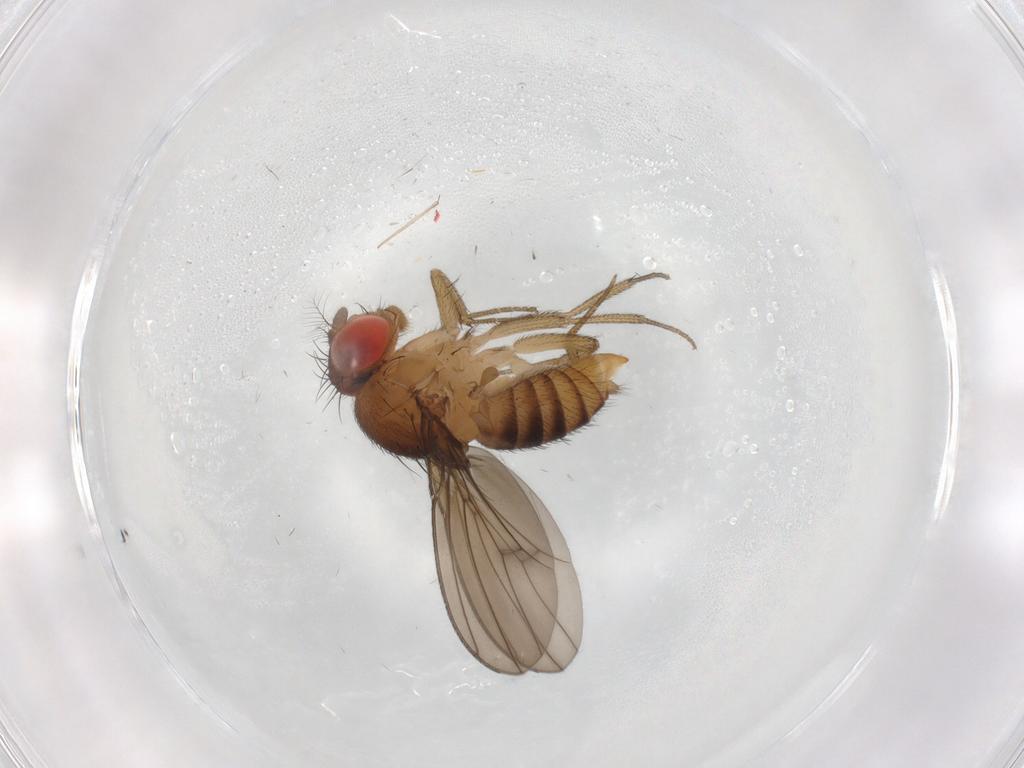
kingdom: Animalia
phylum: Arthropoda
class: Insecta
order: Diptera
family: Drosophilidae
